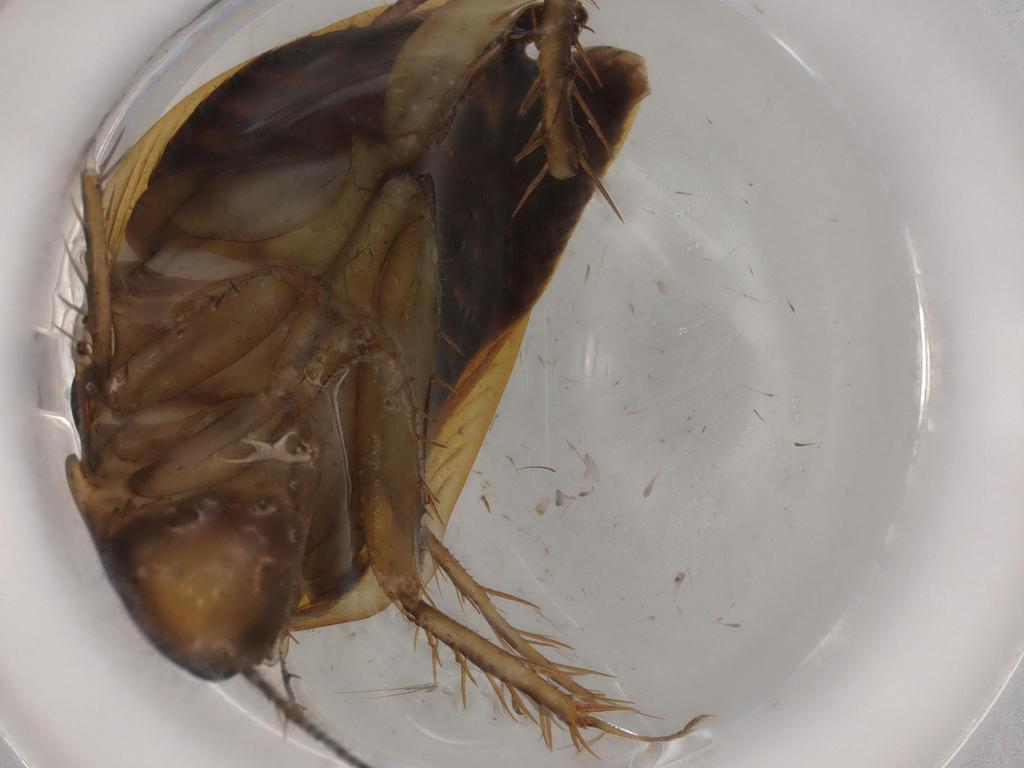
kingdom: Animalia
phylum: Arthropoda
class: Insecta
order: Blattodea
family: Ectobiidae
